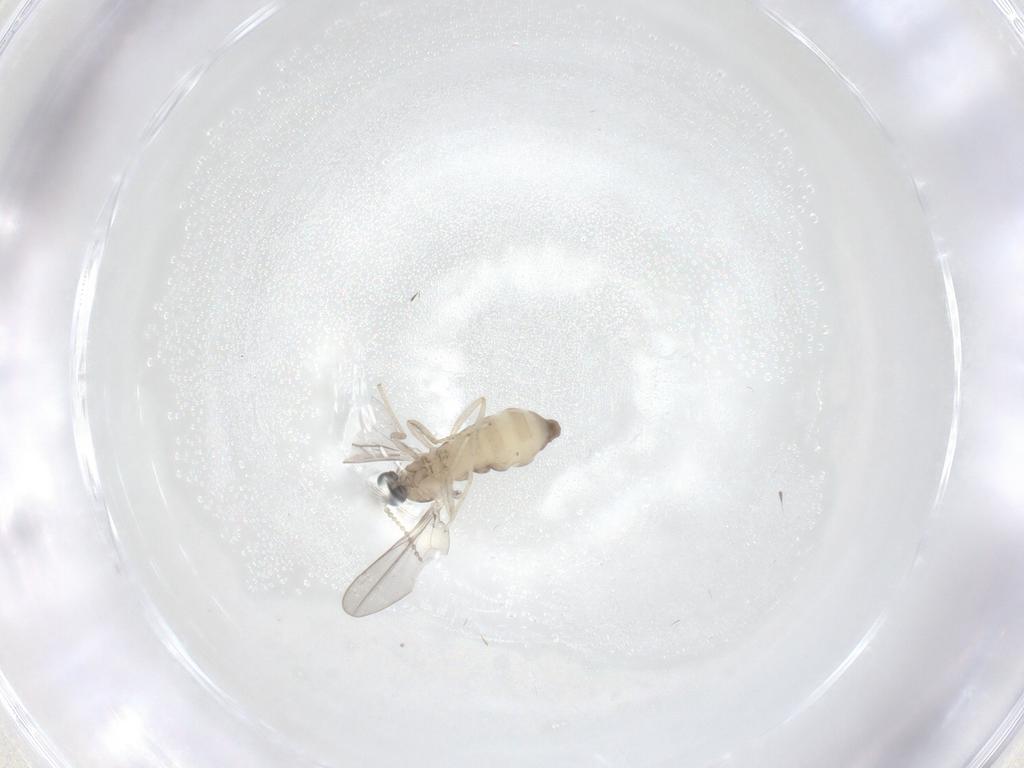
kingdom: Animalia
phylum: Arthropoda
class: Insecta
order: Diptera
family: Cecidomyiidae
